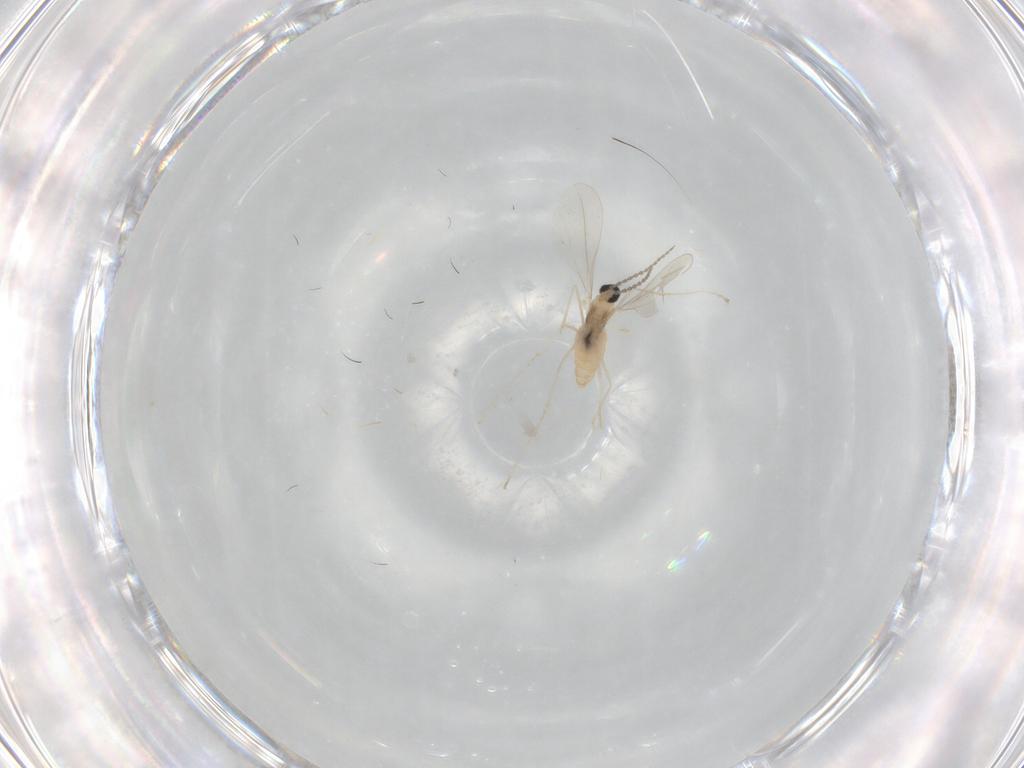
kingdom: Animalia
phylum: Arthropoda
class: Insecta
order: Diptera
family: Cecidomyiidae
